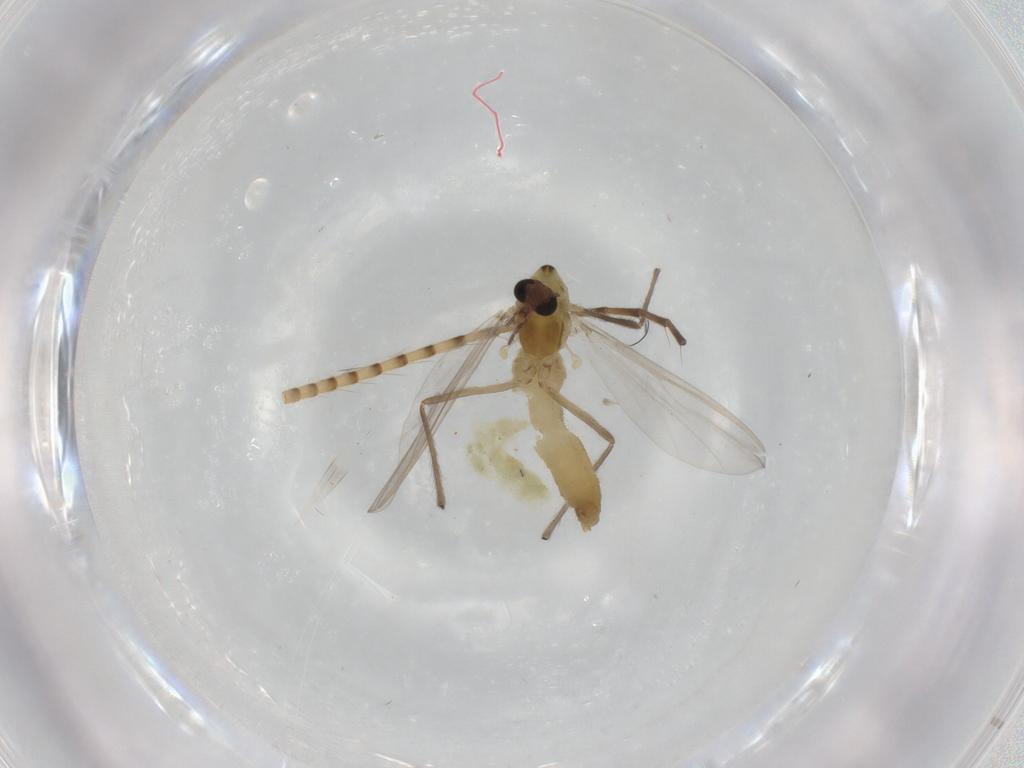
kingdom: Animalia
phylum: Arthropoda
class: Insecta
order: Diptera
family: Chironomidae
